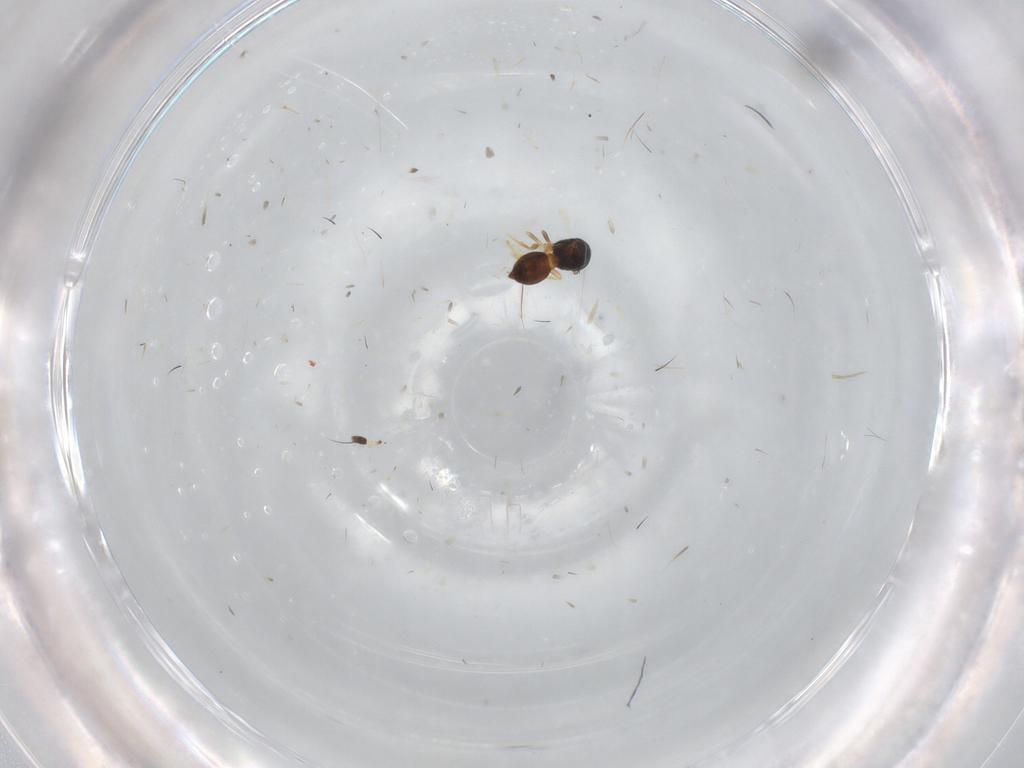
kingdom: Animalia
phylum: Arthropoda
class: Insecta
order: Hymenoptera
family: Scelionidae
